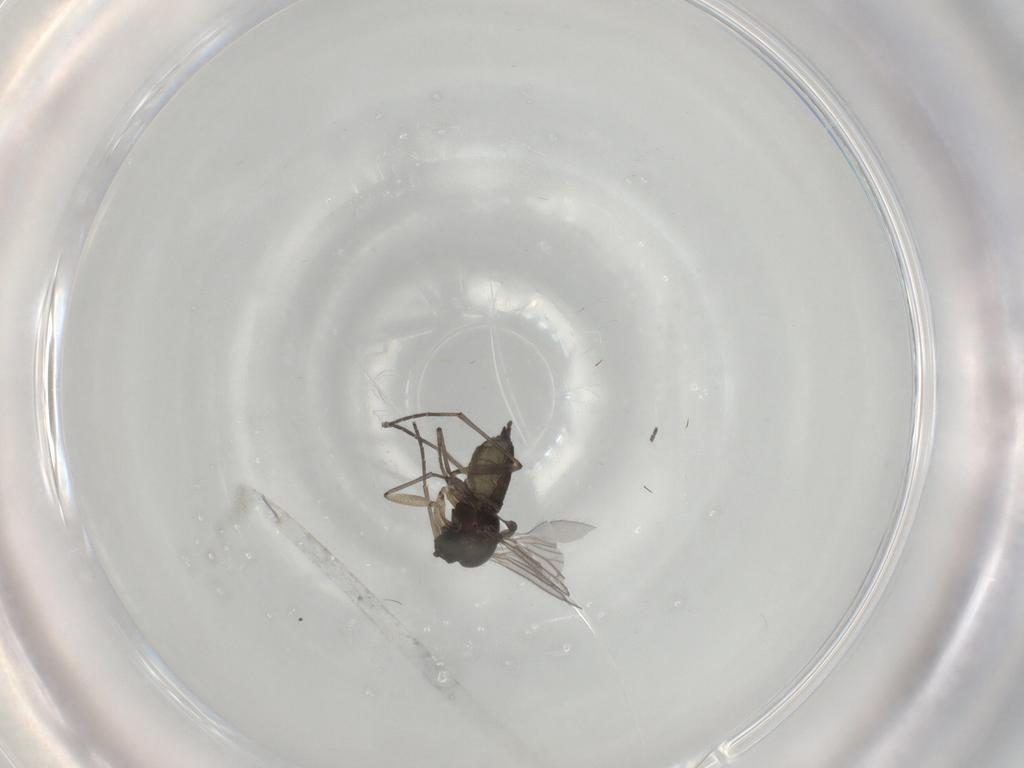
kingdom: Animalia
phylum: Arthropoda
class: Insecta
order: Diptera
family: Sciaridae
